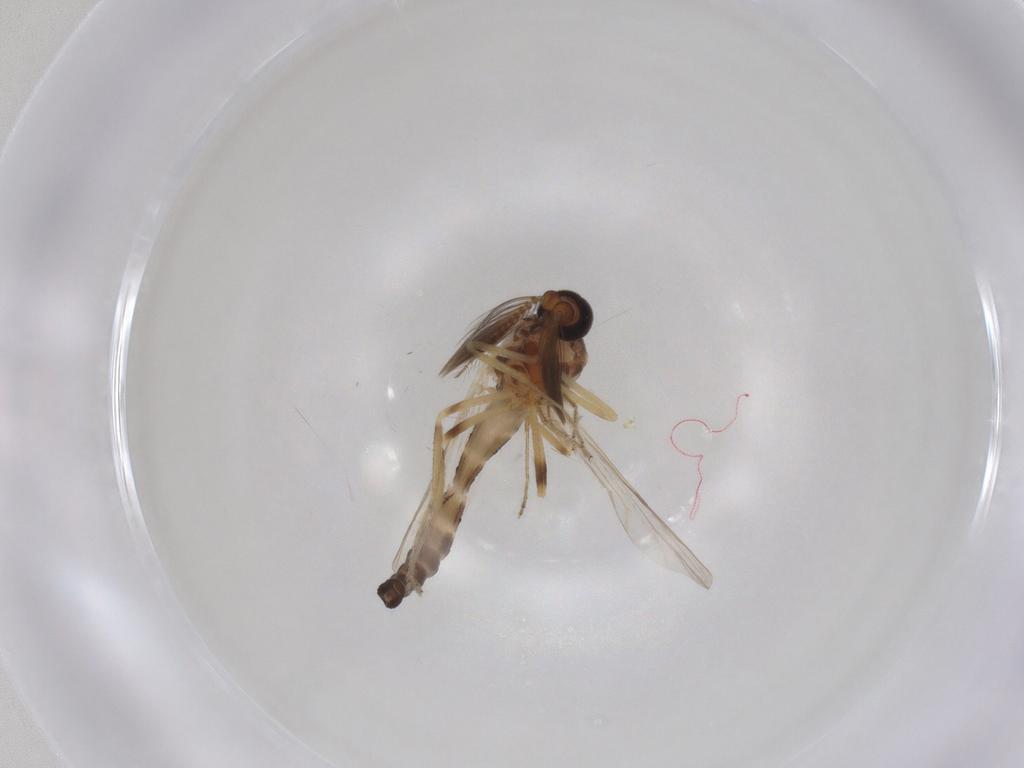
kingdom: Animalia
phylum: Arthropoda
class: Insecta
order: Diptera
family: Ceratopogonidae
